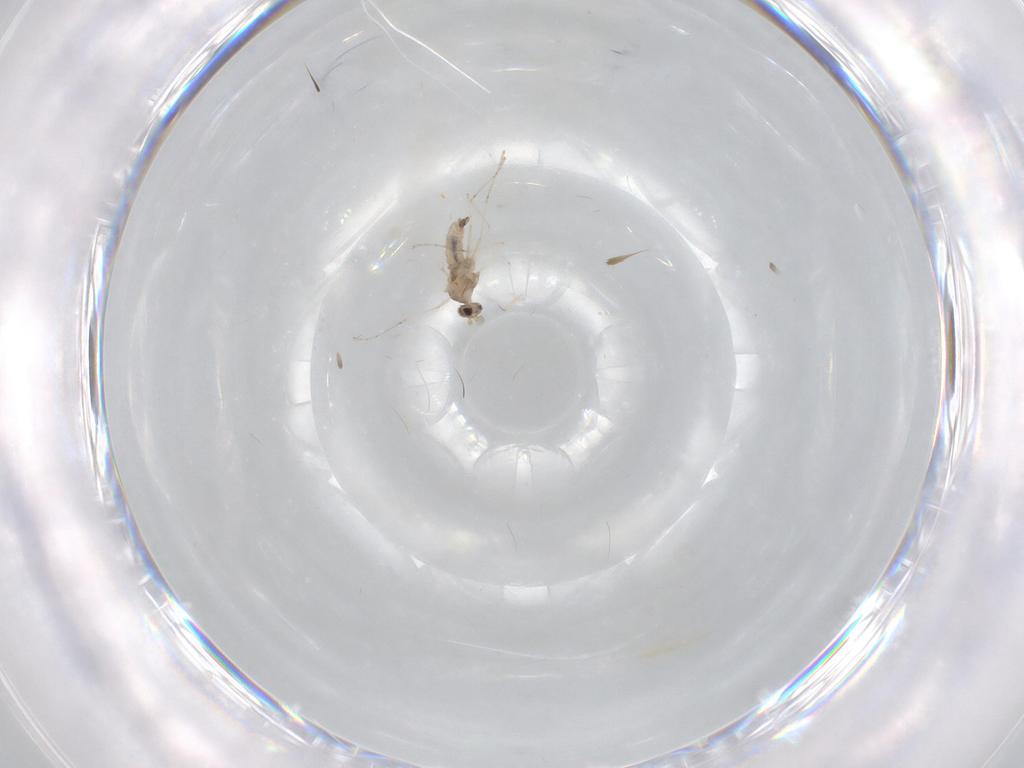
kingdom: Animalia
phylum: Arthropoda
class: Insecta
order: Diptera
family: Cecidomyiidae
